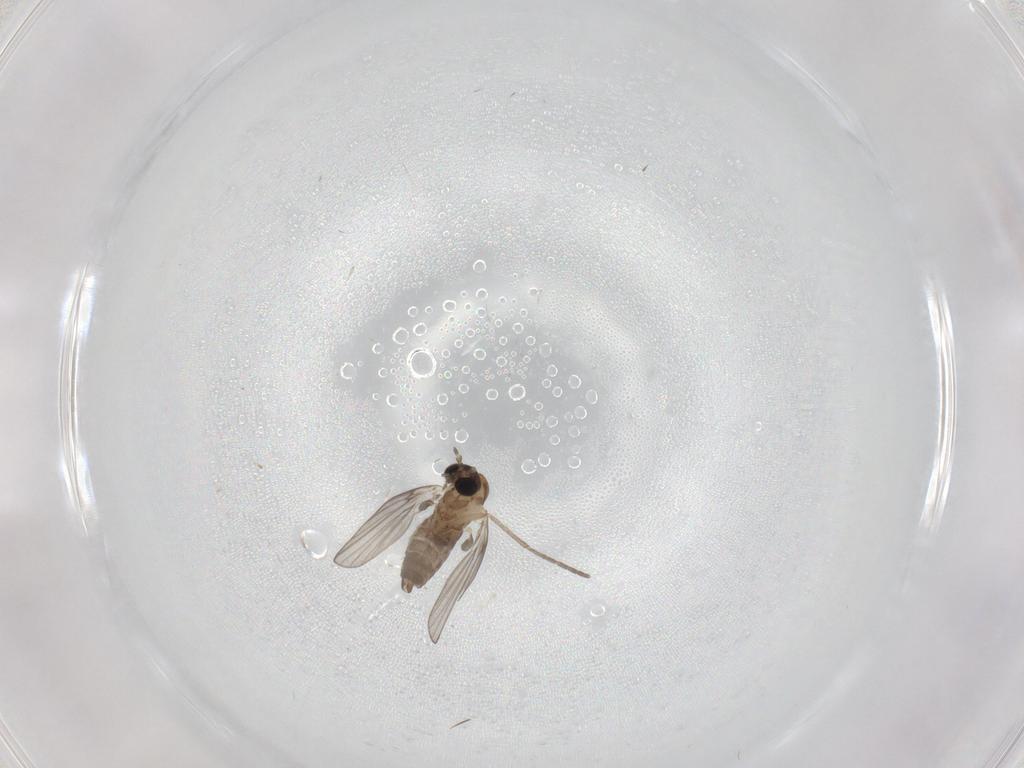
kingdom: Animalia
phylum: Arthropoda
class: Insecta
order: Diptera
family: Psychodidae
